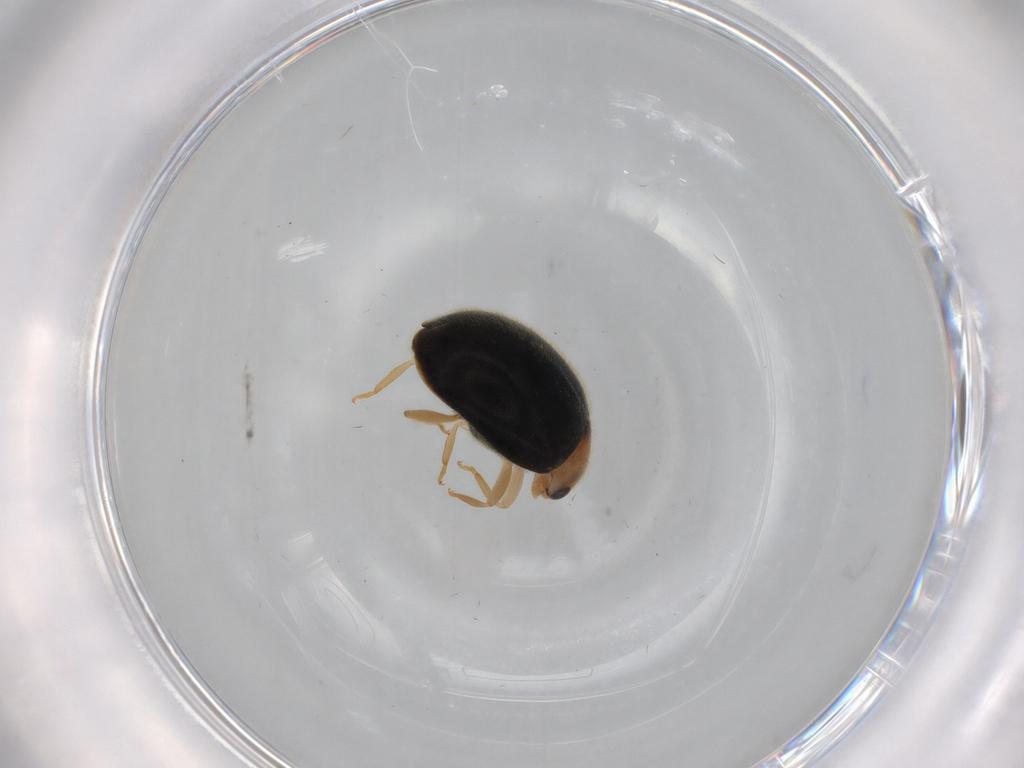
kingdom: Animalia
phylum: Arthropoda
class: Insecta
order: Coleoptera
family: Coccinellidae
